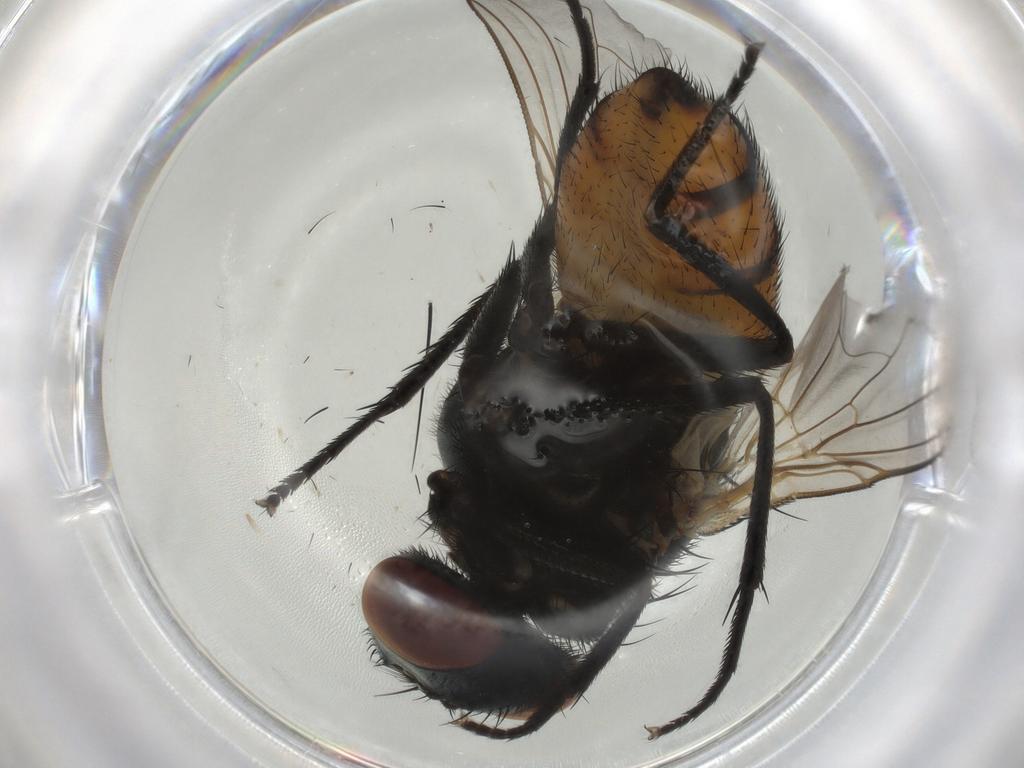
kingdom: Animalia
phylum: Arthropoda
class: Insecta
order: Diptera
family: Muscidae
